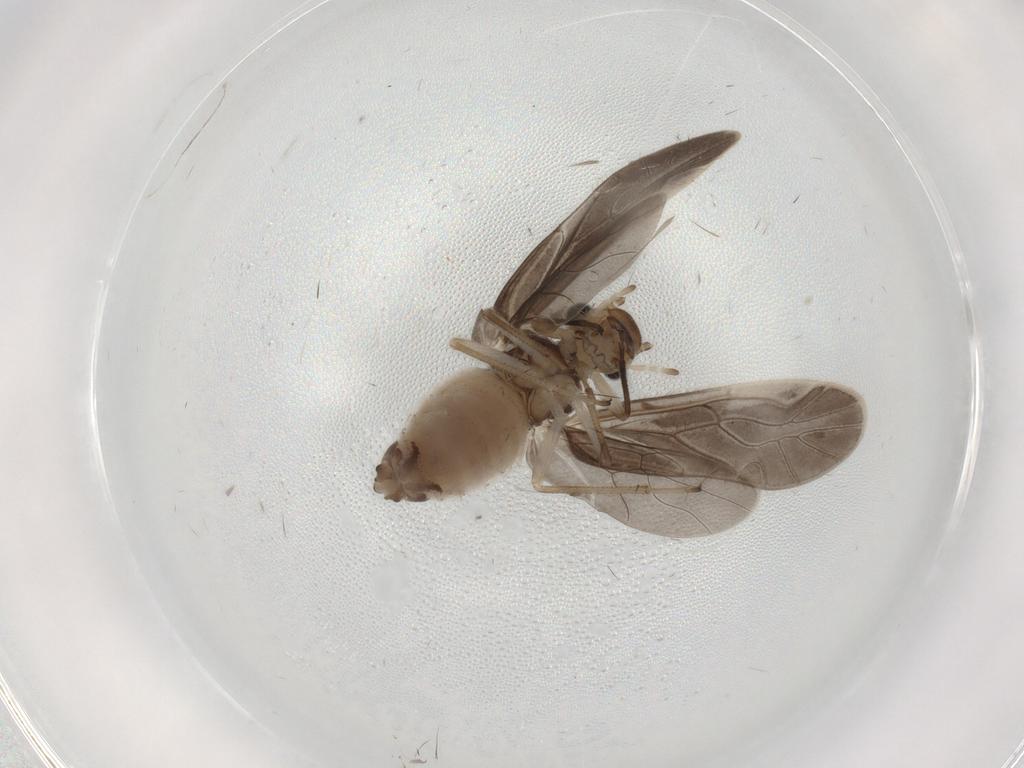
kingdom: Animalia
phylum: Arthropoda
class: Insecta
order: Psocodea
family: Caeciliusidae
